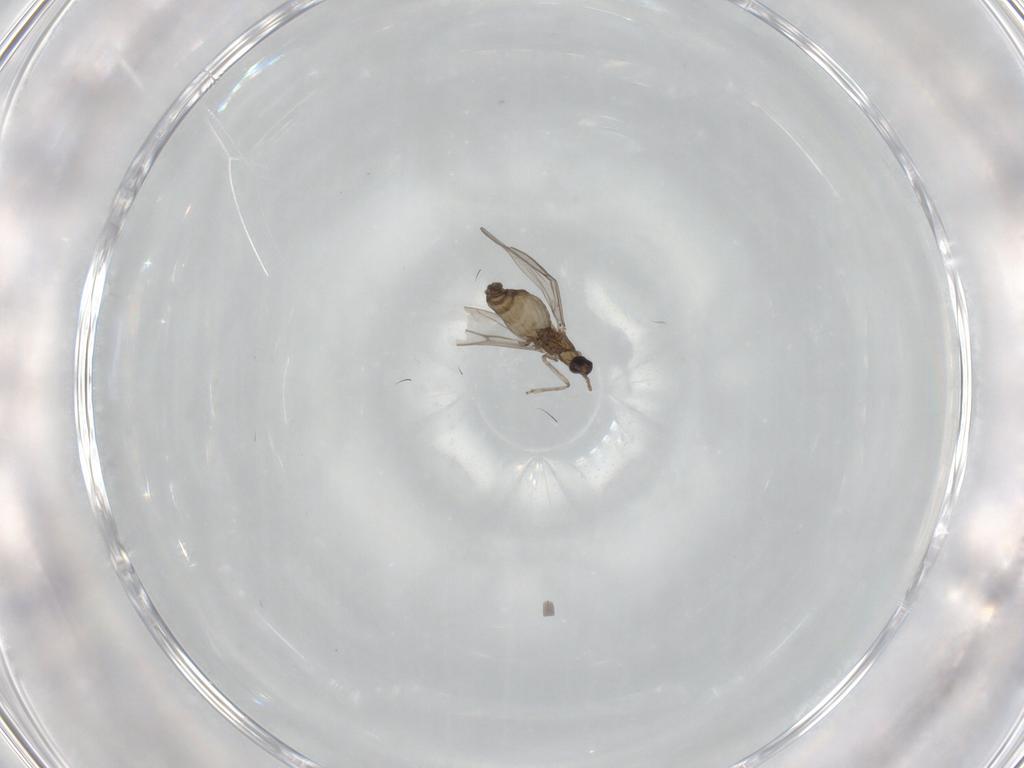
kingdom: Animalia
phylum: Arthropoda
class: Insecta
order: Diptera
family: Cecidomyiidae
